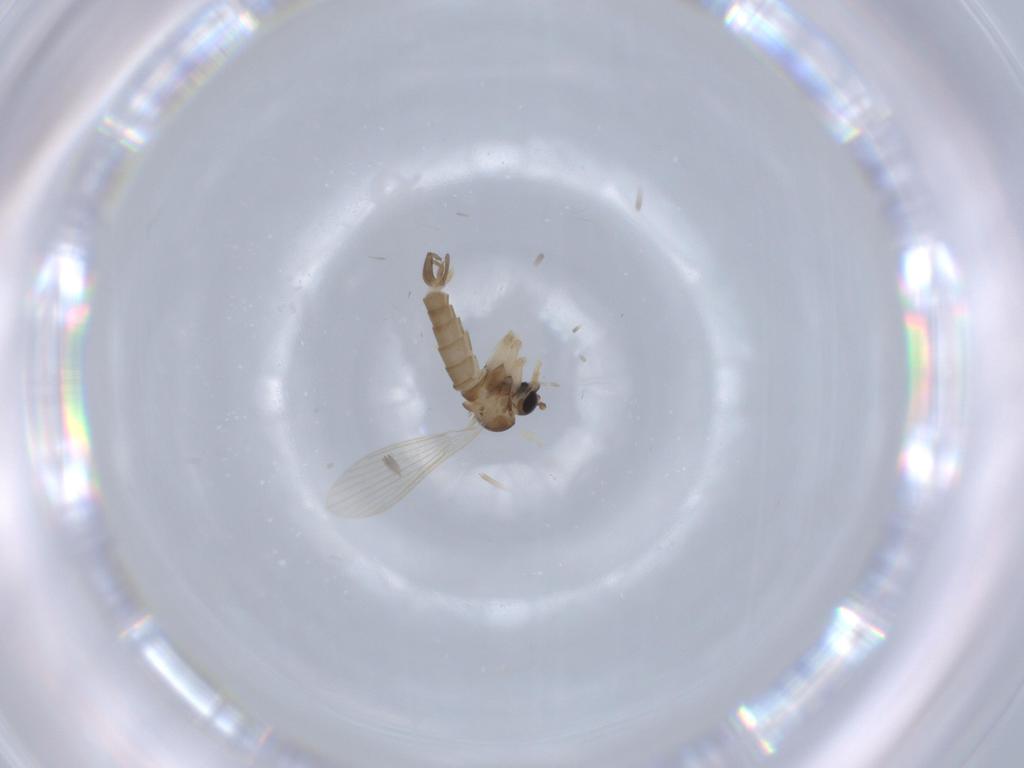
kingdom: Animalia
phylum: Arthropoda
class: Insecta
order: Diptera
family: Psychodidae
